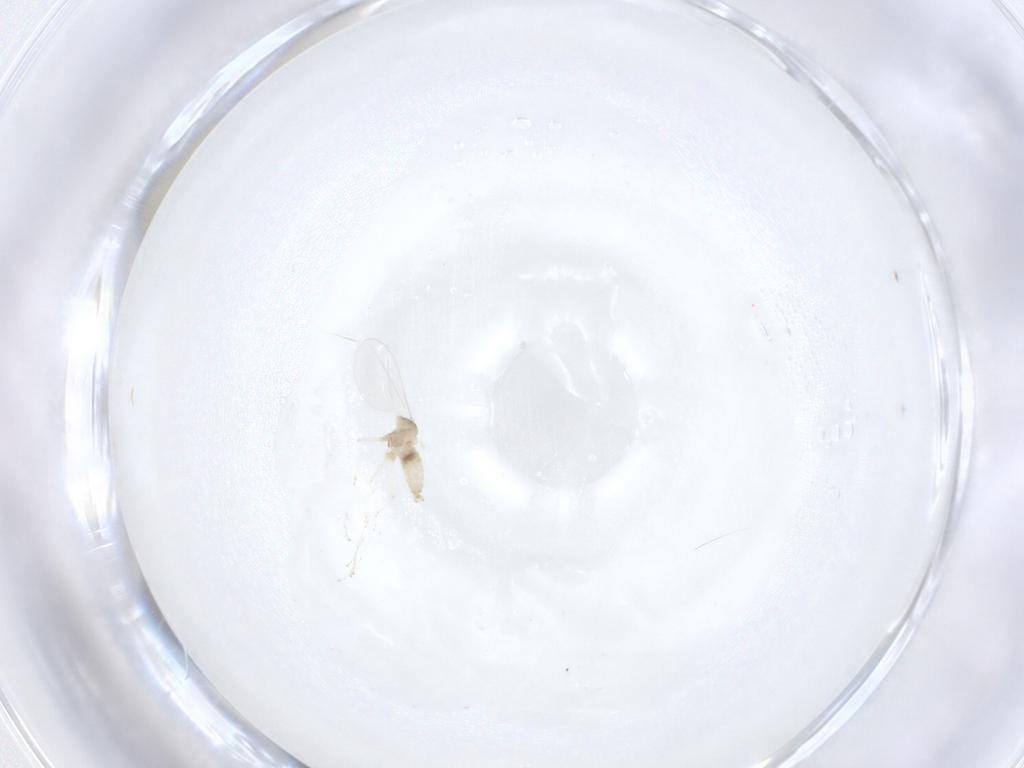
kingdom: Animalia
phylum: Arthropoda
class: Insecta
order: Diptera
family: Cecidomyiidae
